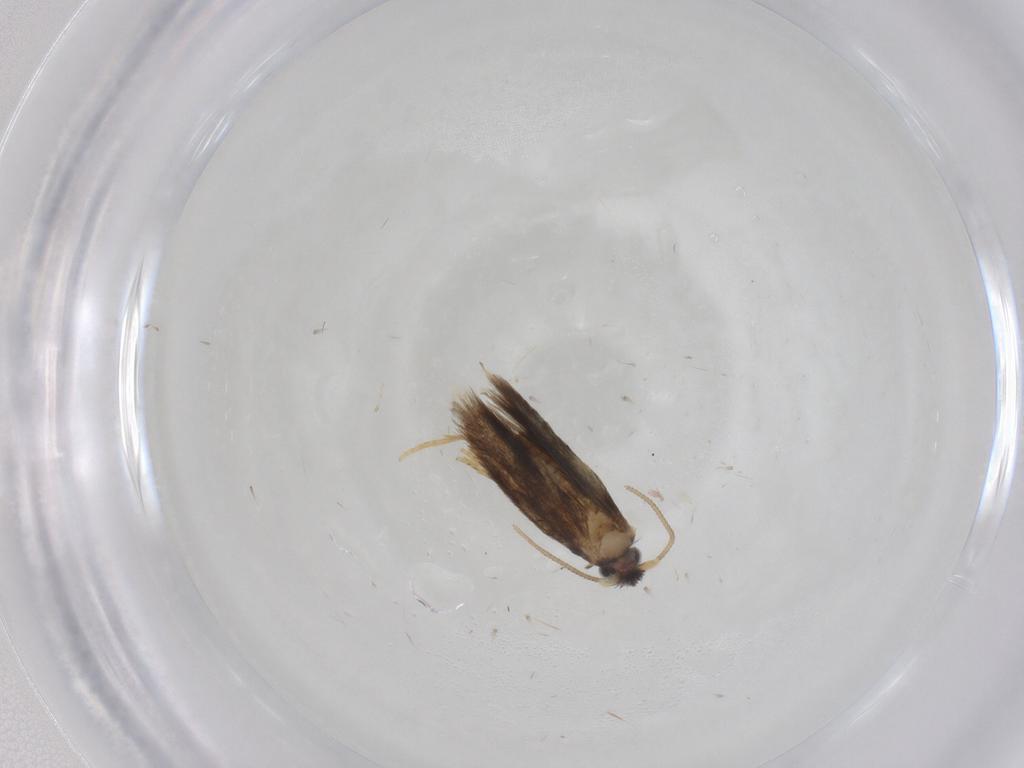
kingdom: Animalia
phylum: Arthropoda
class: Insecta
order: Lepidoptera
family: Nepticulidae
